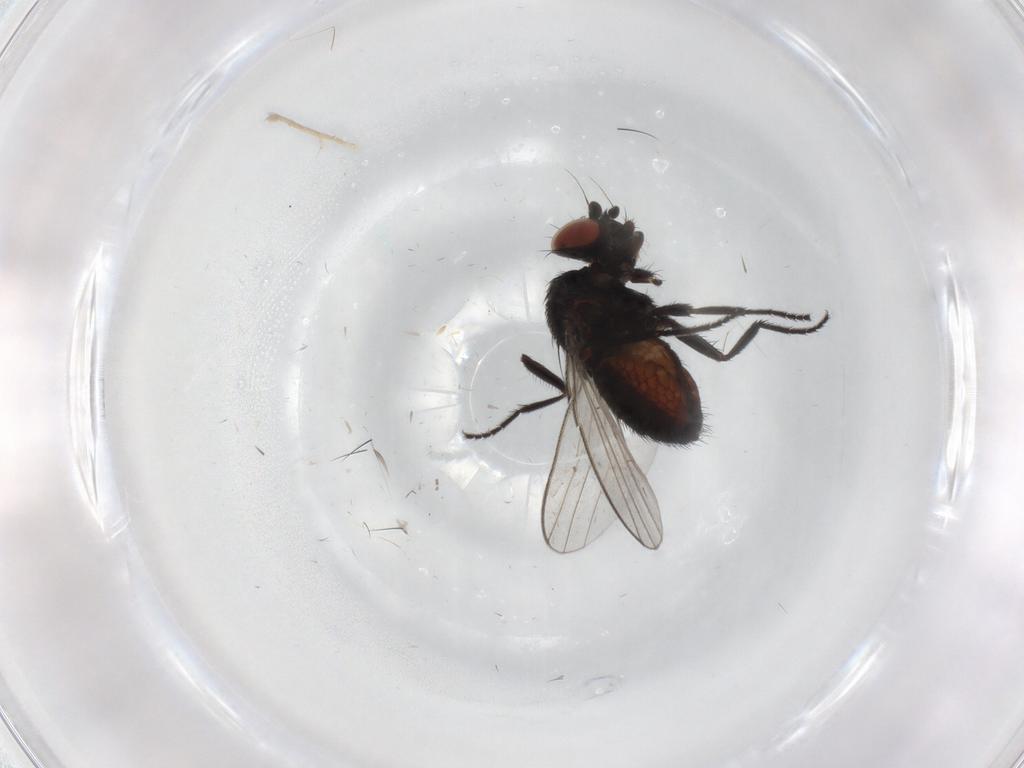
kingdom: Animalia
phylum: Arthropoda
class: Insecta
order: Diptera
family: Milichiidae
